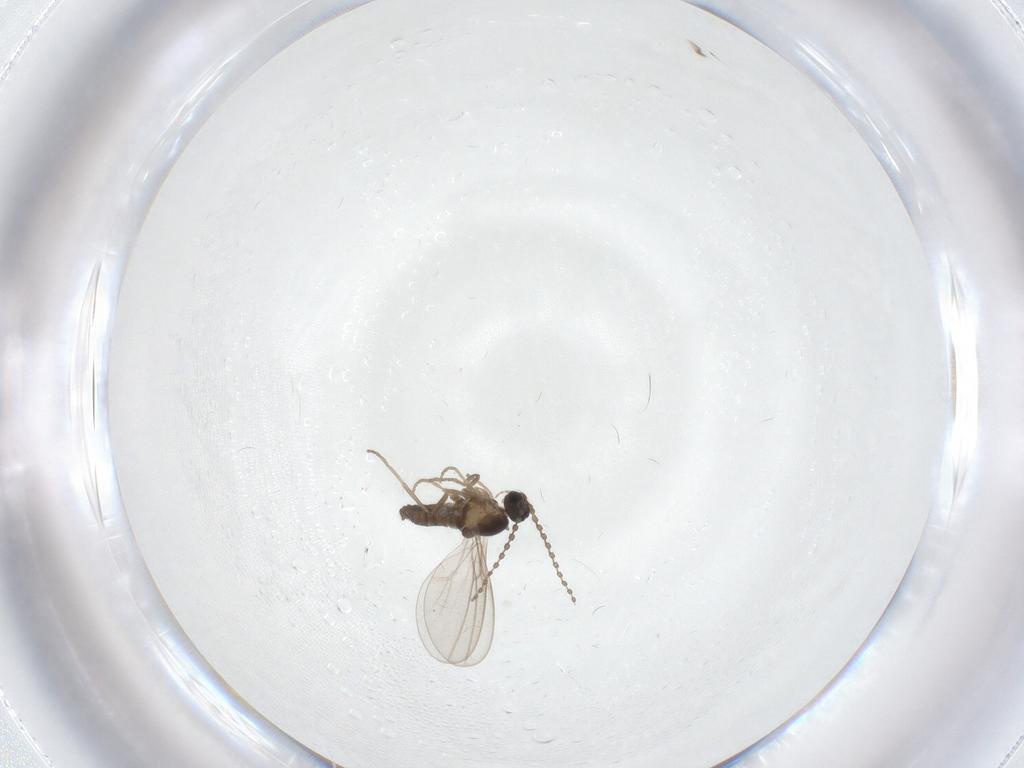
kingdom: Animalia
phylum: Arthropoda
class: Insecta
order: Diptera
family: Cecidomyiidae
